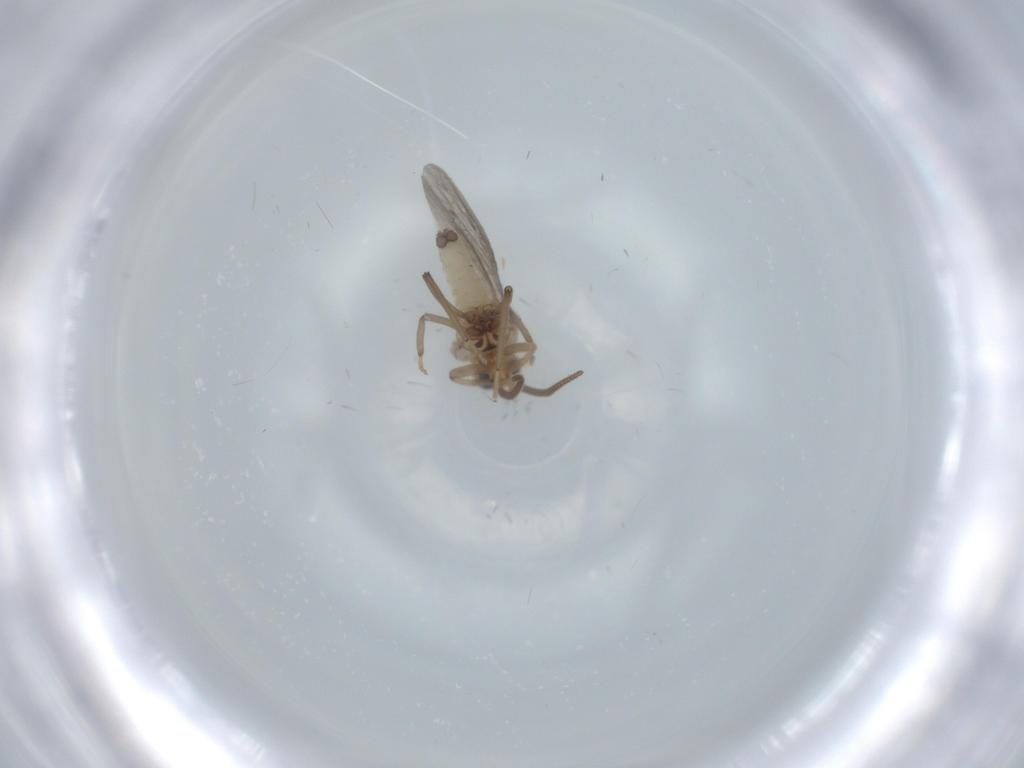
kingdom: Animalia
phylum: Arthropoda
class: Insecta
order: Neuroptera
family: Coniopterygidae
